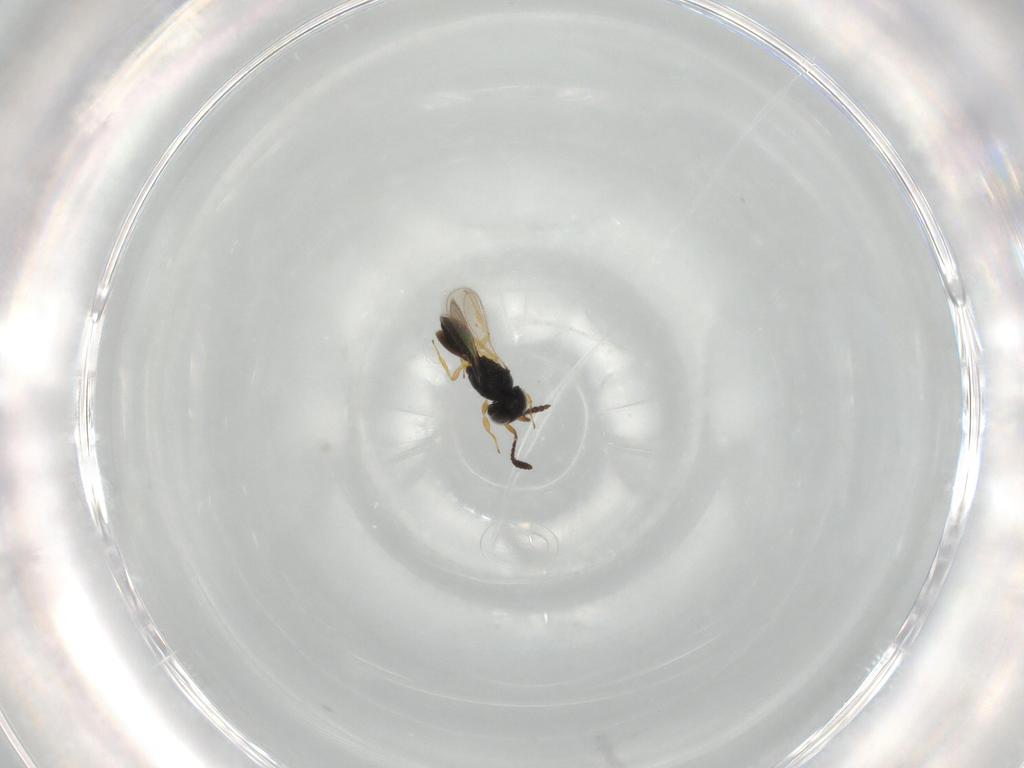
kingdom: Animalia
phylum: Arthropoda
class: Insecta
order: Hymenoptera
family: Scelionidae
